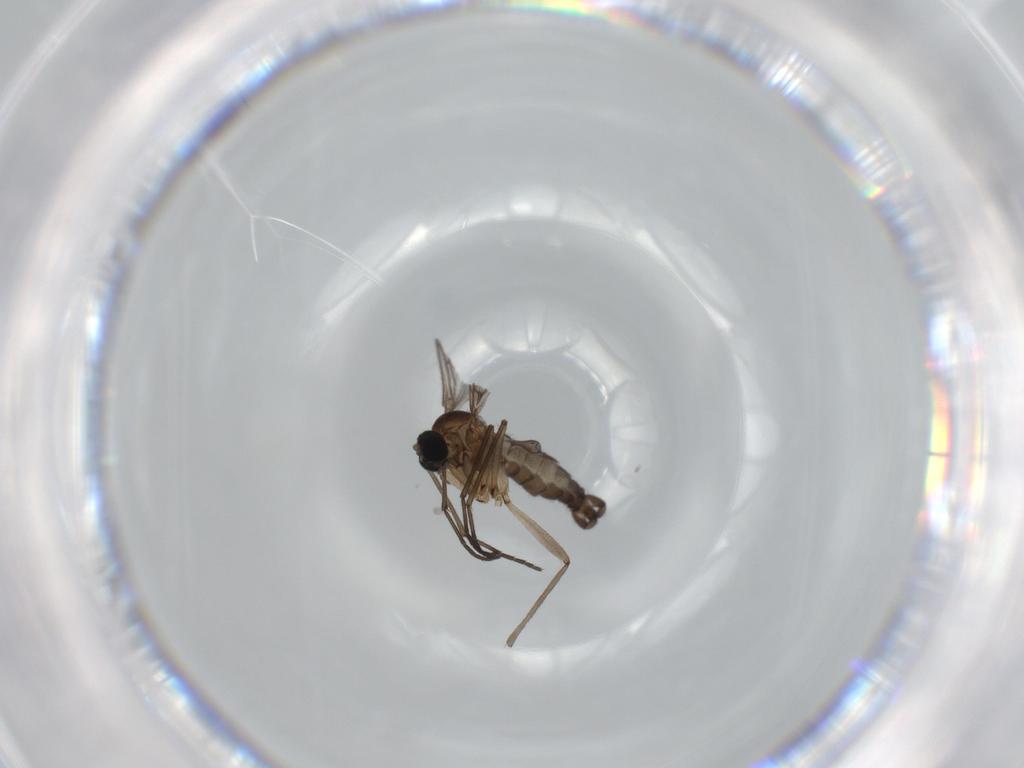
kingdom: Animalia
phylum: Arthropoda
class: Insecta
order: Diptera
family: Sciaridae
